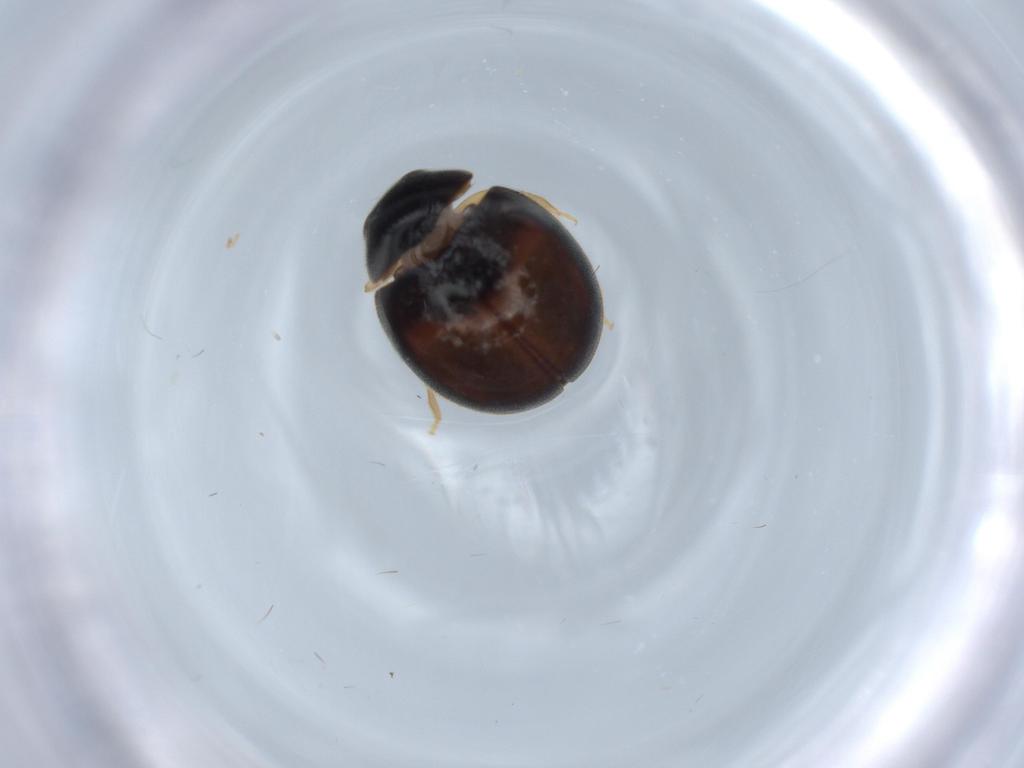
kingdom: Animalia
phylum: Arthropoda
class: Insecta
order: Coleoptera
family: Coccinellidae
